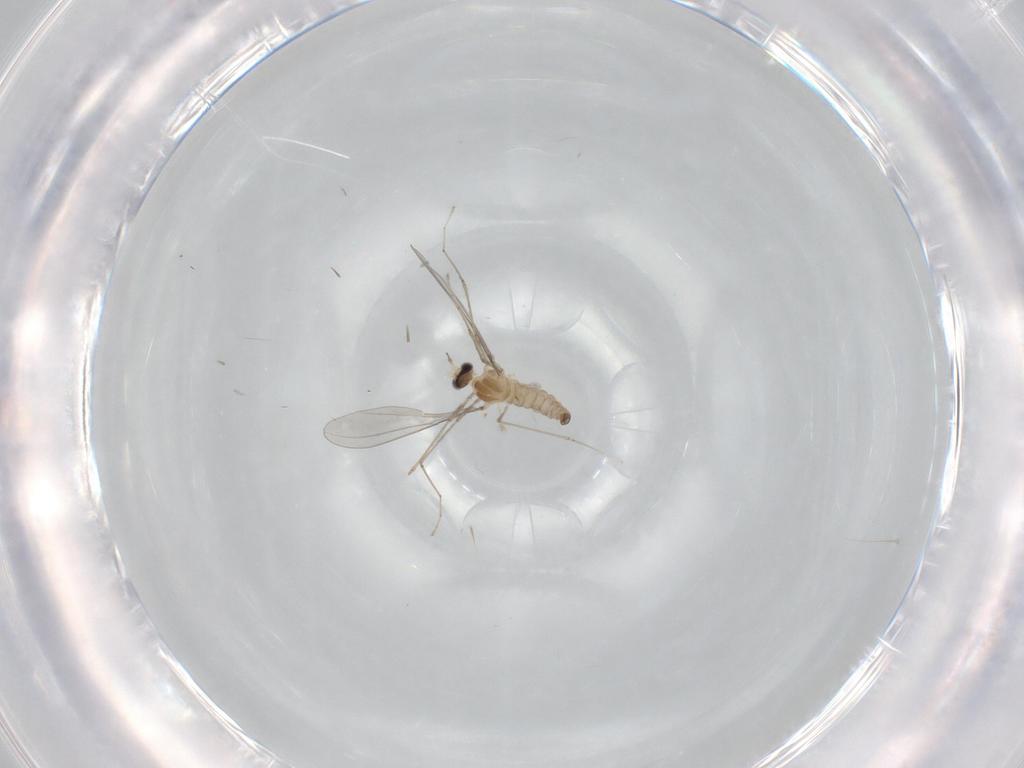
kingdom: Animalia
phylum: Arthropoda
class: Insecta
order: Diptera
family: Cecidomyiidae
